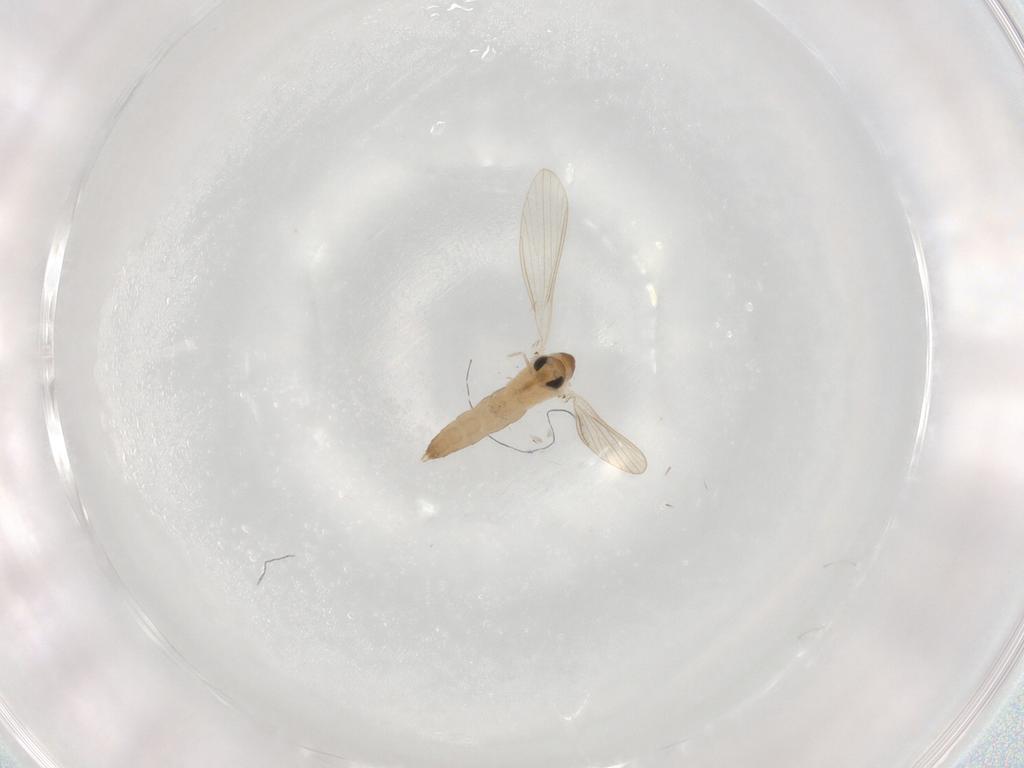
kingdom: Animalia
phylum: Arthropoda
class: Insecta
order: Diptera
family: Psychodidae
